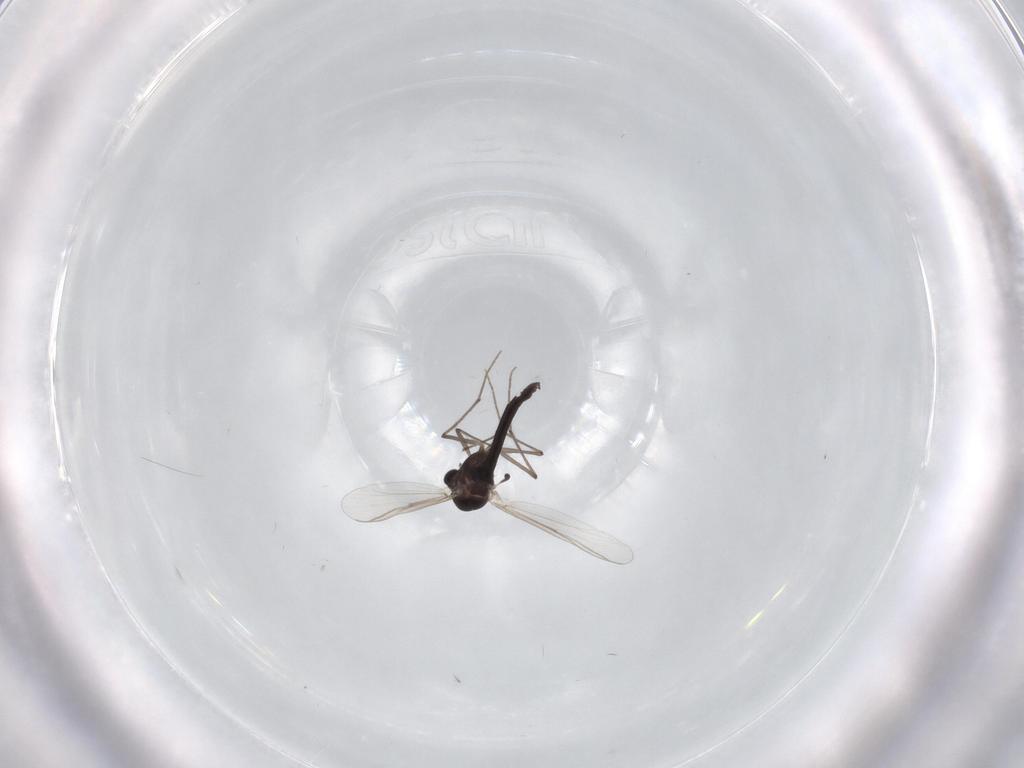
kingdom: Animalia
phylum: Arthropoda
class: Insecta
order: Diptera
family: Chironomidae
